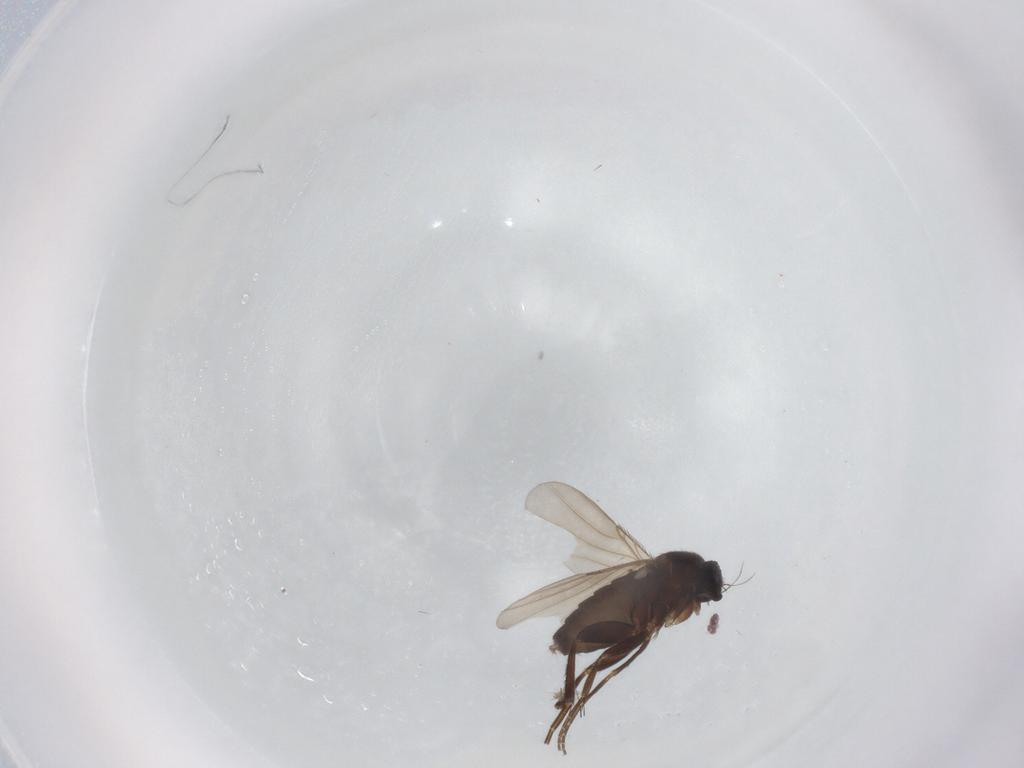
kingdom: Animalia
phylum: Arthropoda
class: Insecta
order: Diptera
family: Phoridae
